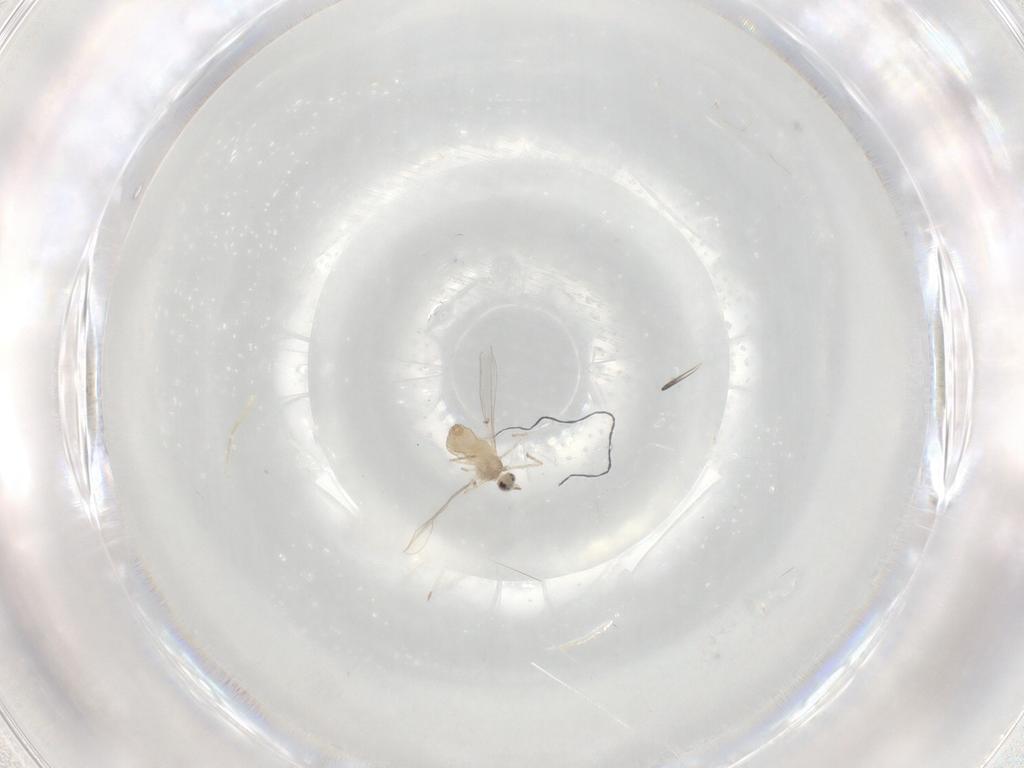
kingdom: Animalia
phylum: Arthropoda
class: Insecta
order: Diptera
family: Cecidomyiidae
